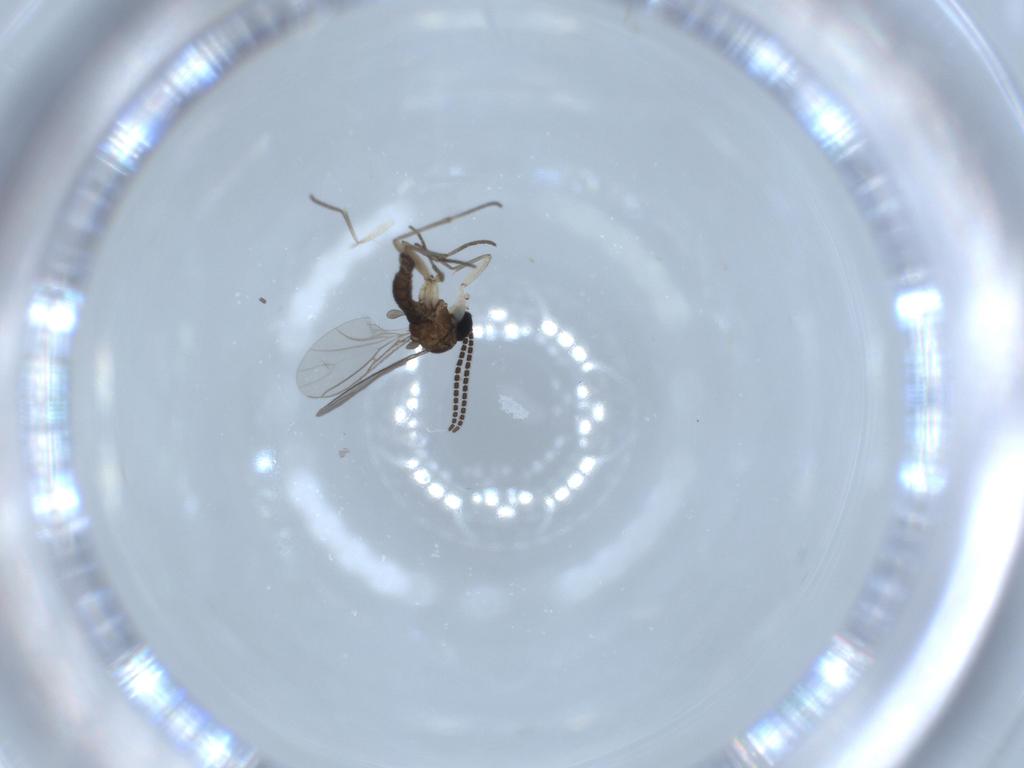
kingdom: Animalia
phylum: Arthropoda
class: Insecta
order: Diptera
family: Sciaridae
